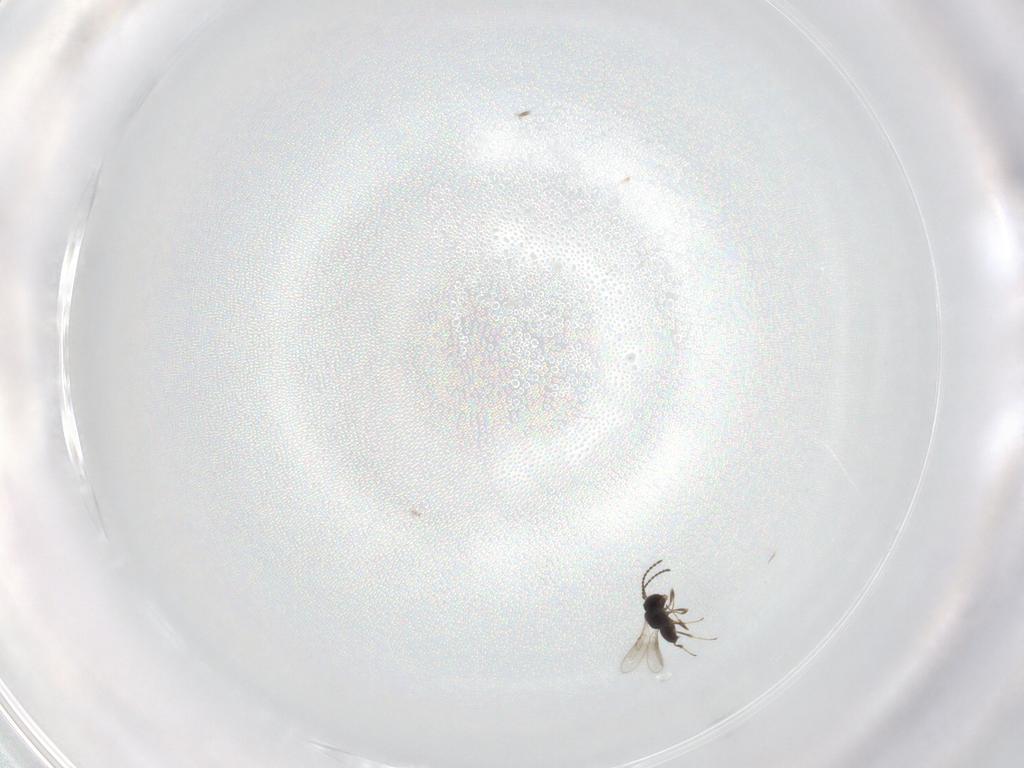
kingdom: Animalia
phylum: Arthropoda
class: Insecta
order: Hymenoptera
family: Scelionidae
